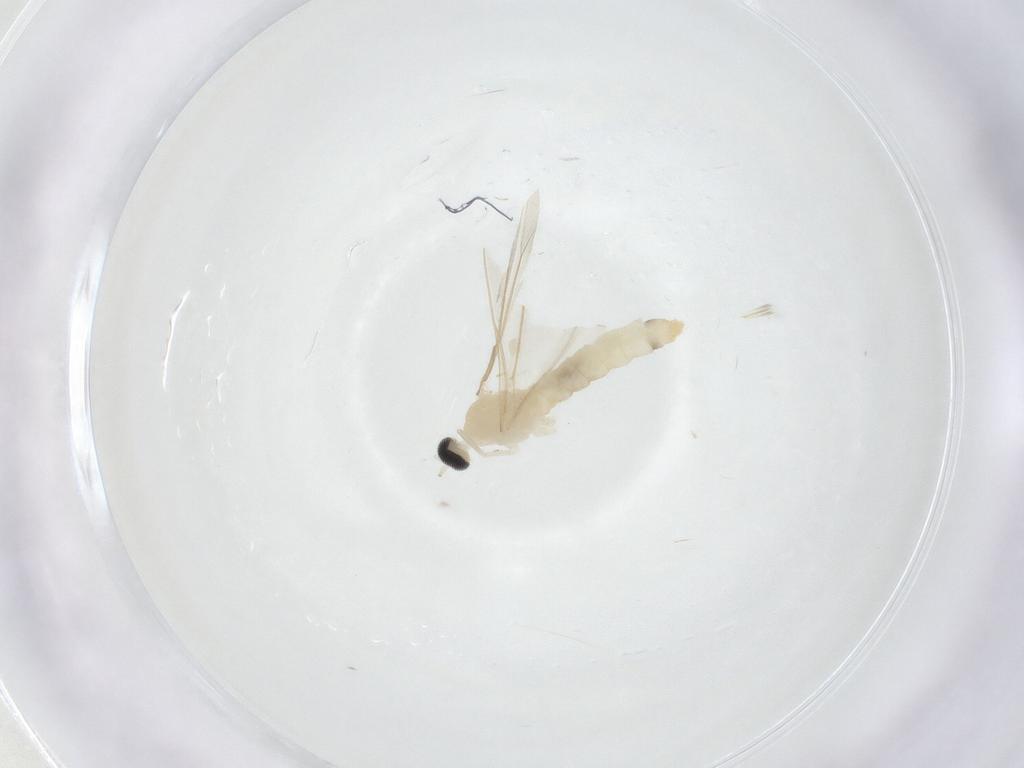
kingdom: Animalia
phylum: Arthropoda
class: Insecta
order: Diptera
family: Cecidomyiidae
